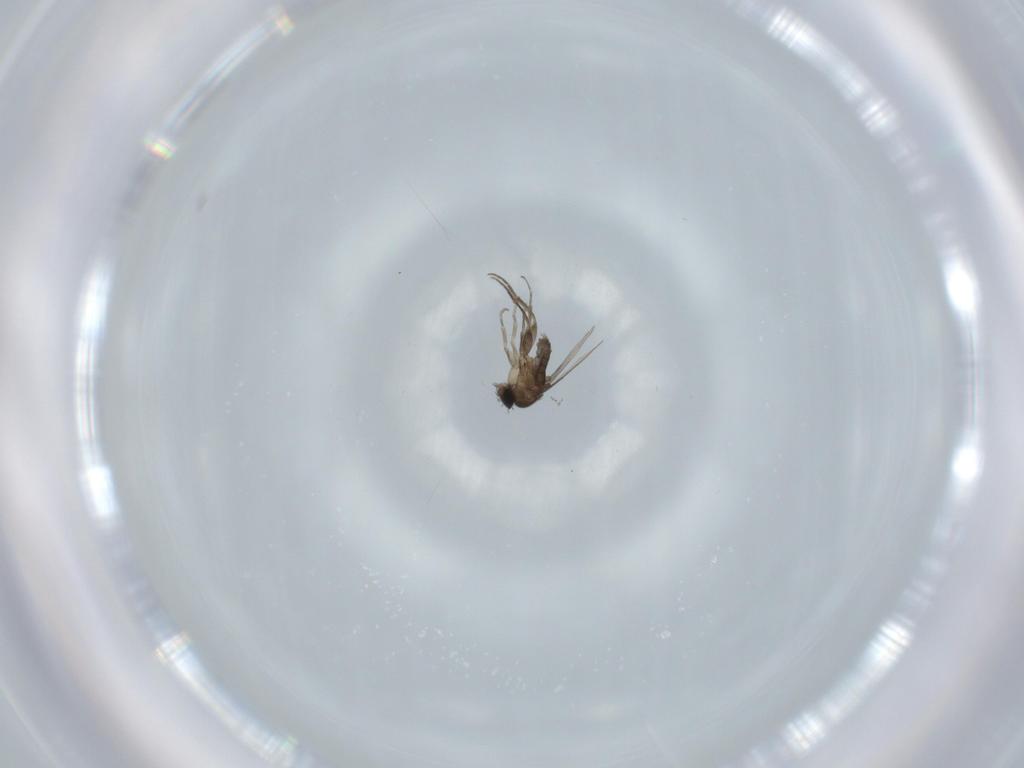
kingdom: Animalia
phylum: Arthropoda
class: Insecta
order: Diptera
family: Phoridae
